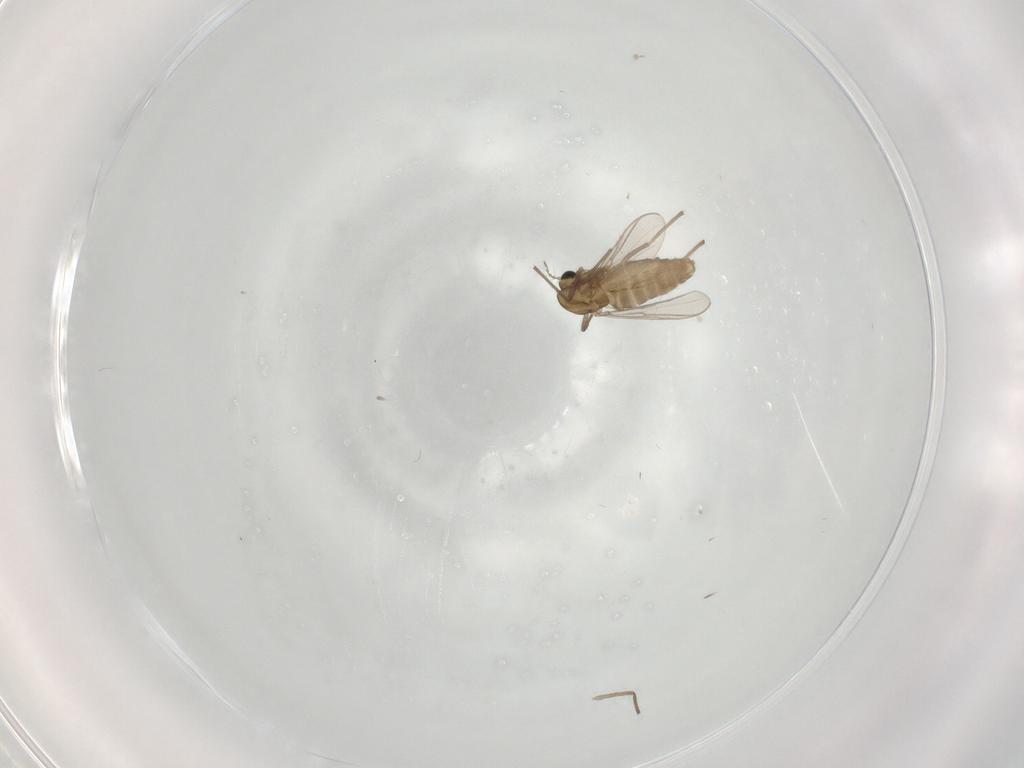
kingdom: Animalia
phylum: Arthropoda
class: Insecta
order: Diptera
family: Chironomidae
